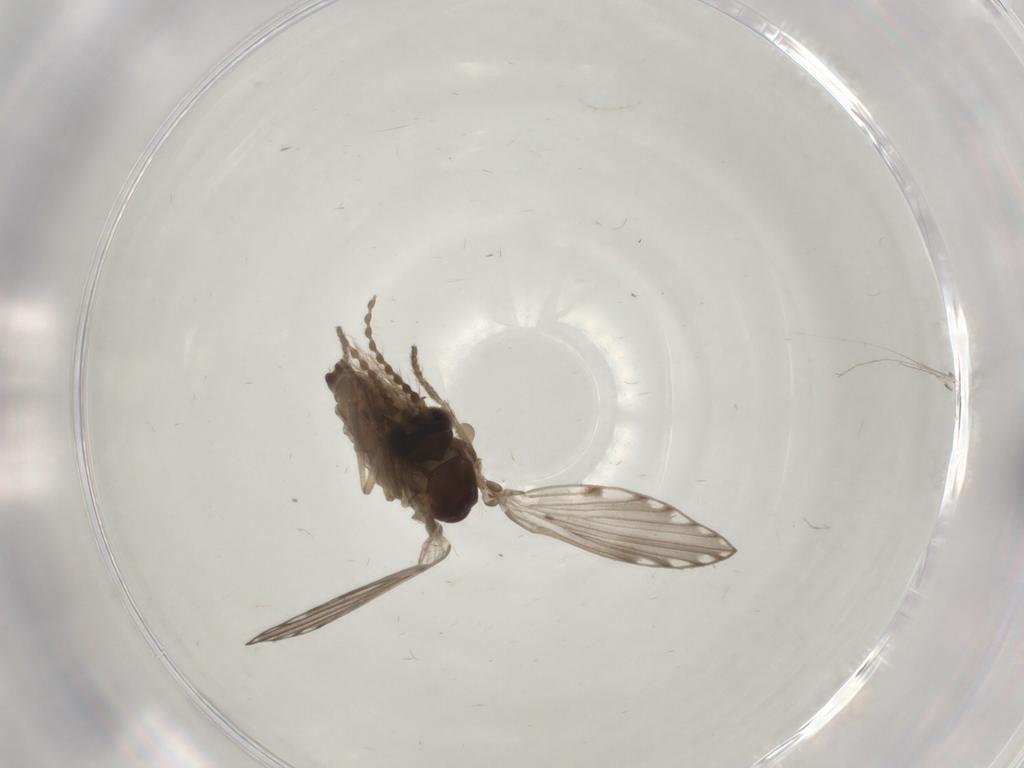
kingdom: Animalia
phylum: Arthropoda
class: Insecta
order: Diptera
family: Psychodidae
